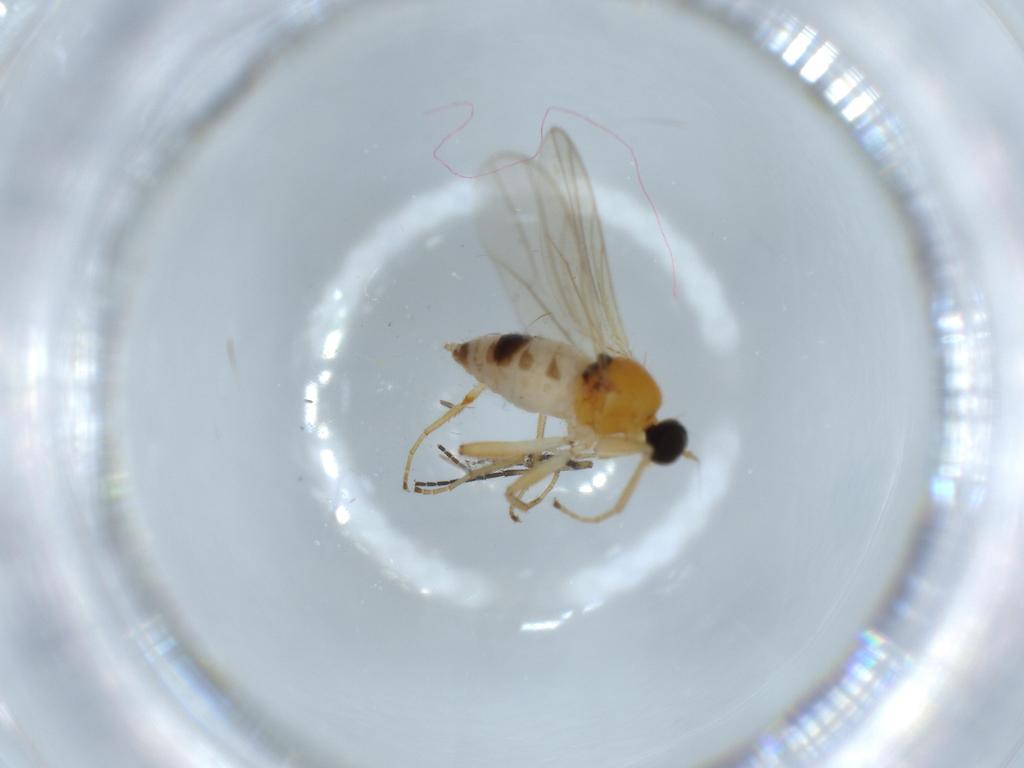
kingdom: Animalia
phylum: Arthropoda
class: Insecta
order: Diptera
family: Hybotidae
